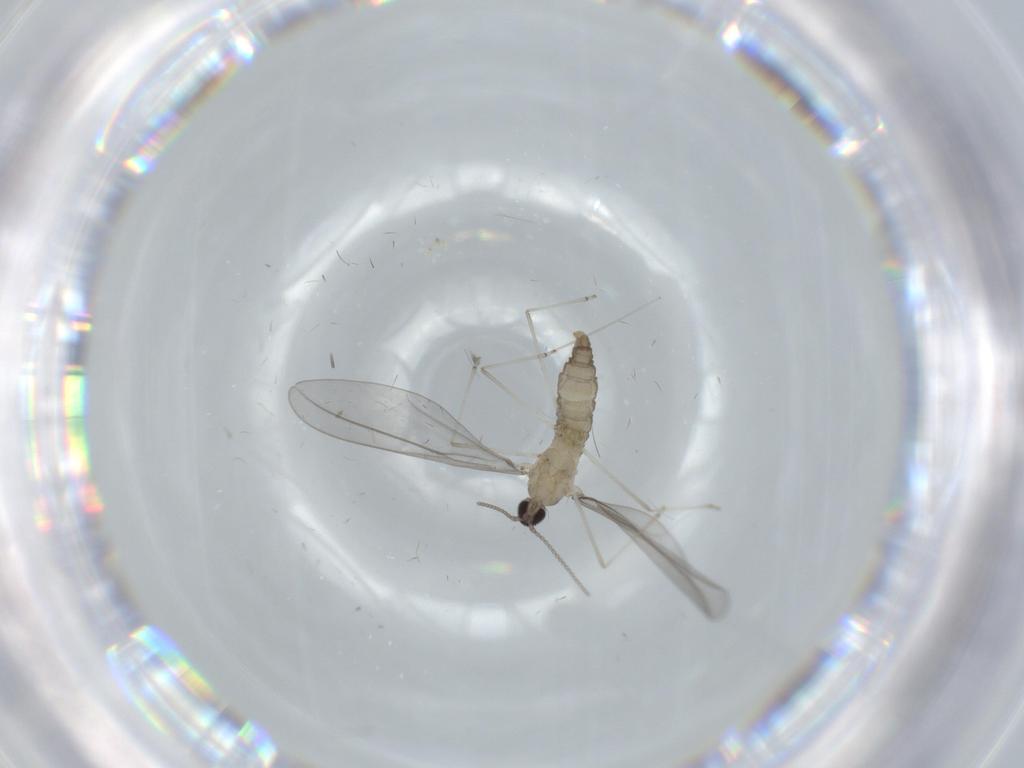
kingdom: Animalia
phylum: Arthropoda
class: Insecta
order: Diptera
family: Cecidomyiidae
